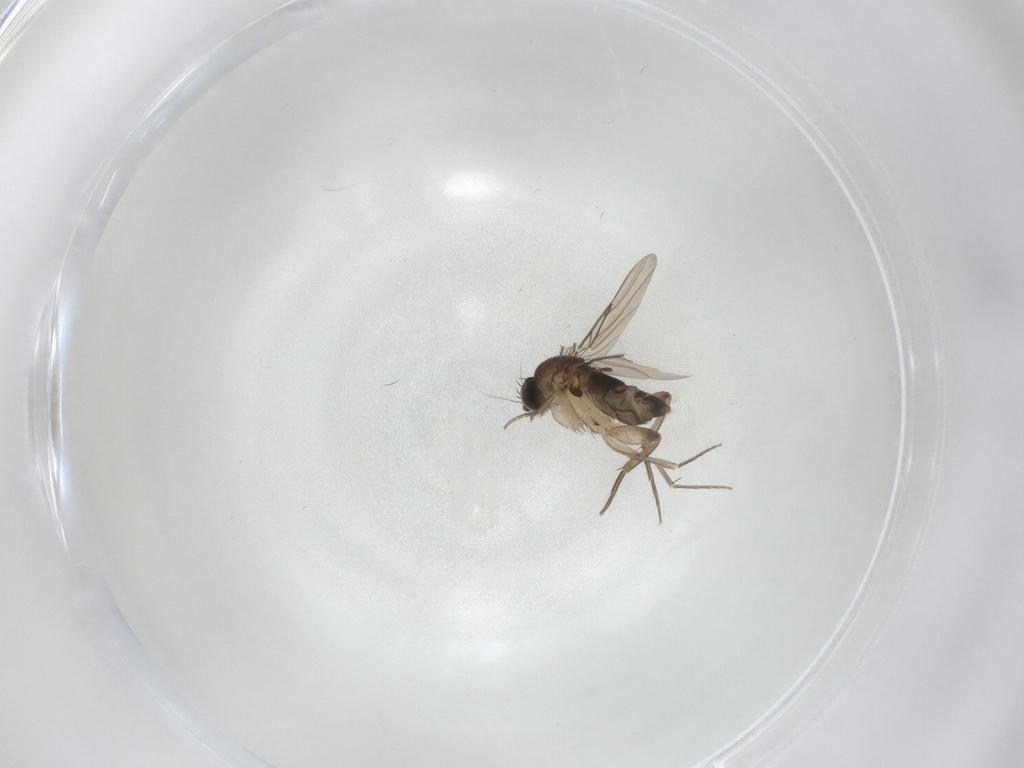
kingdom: Animalia
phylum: Arthropoda
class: Insecta
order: Diptera
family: Phoridae
